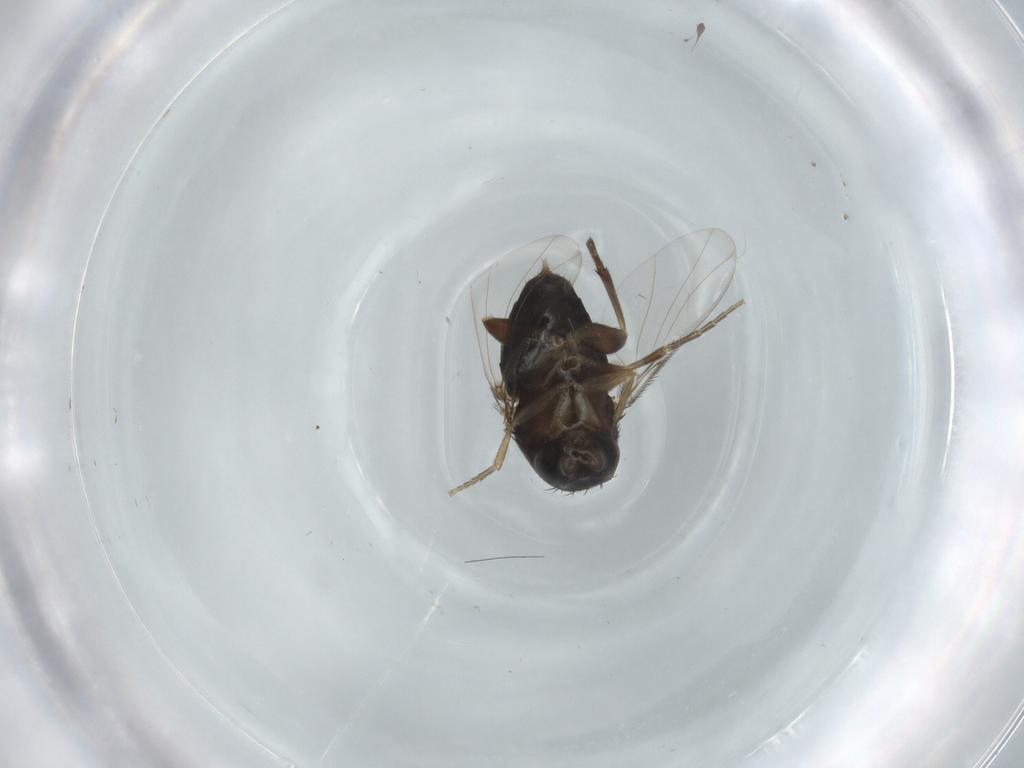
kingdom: Animalia
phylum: Arthropoda
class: Insecta
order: Diptera
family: Phoridae
